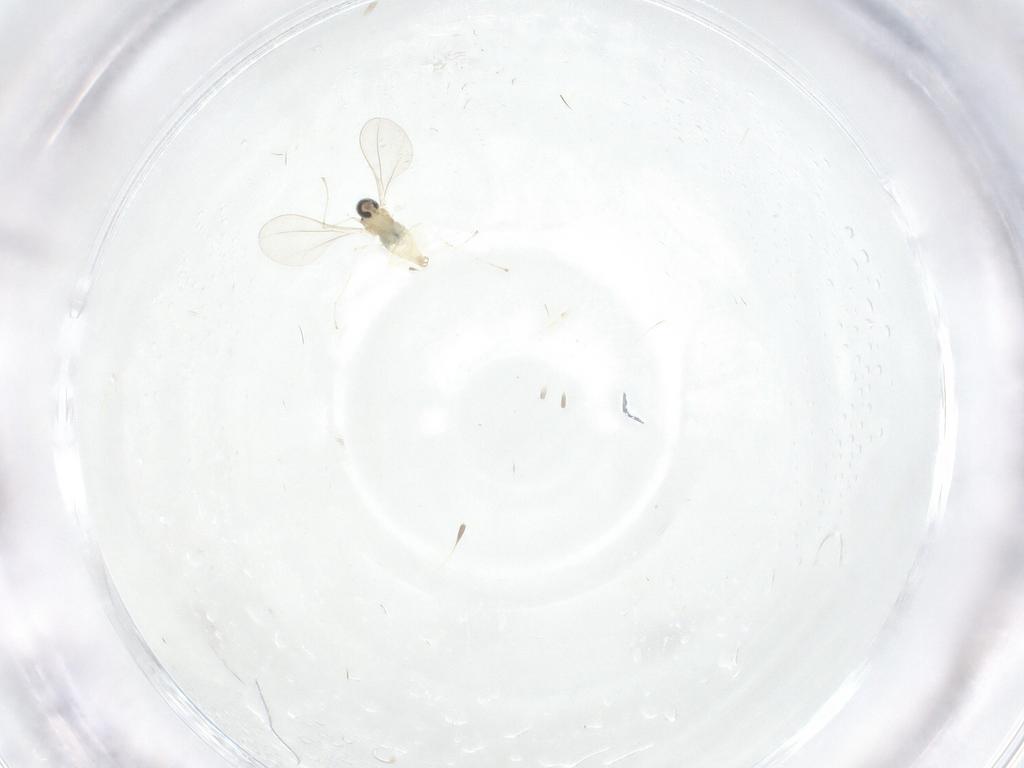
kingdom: Animalia
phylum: Arthropoda
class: Insecta
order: Diptera
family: Cecidomyiidae
